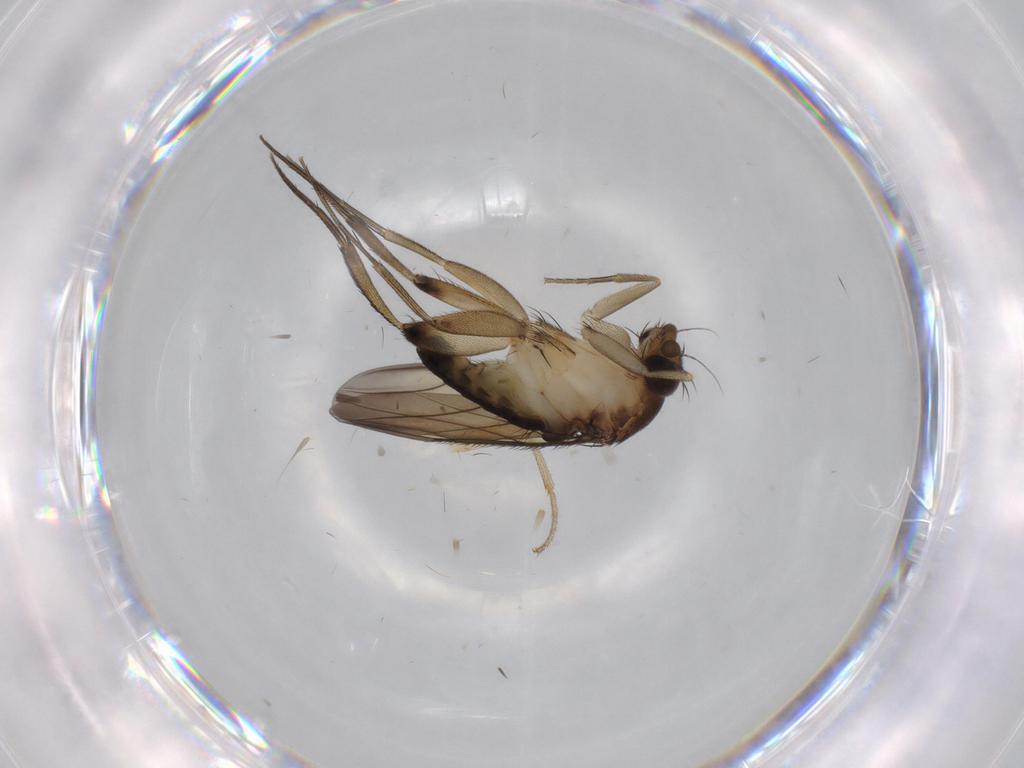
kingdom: Animalia
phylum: Arthropoda
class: Insecta
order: Diptera
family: Drosophilidae
